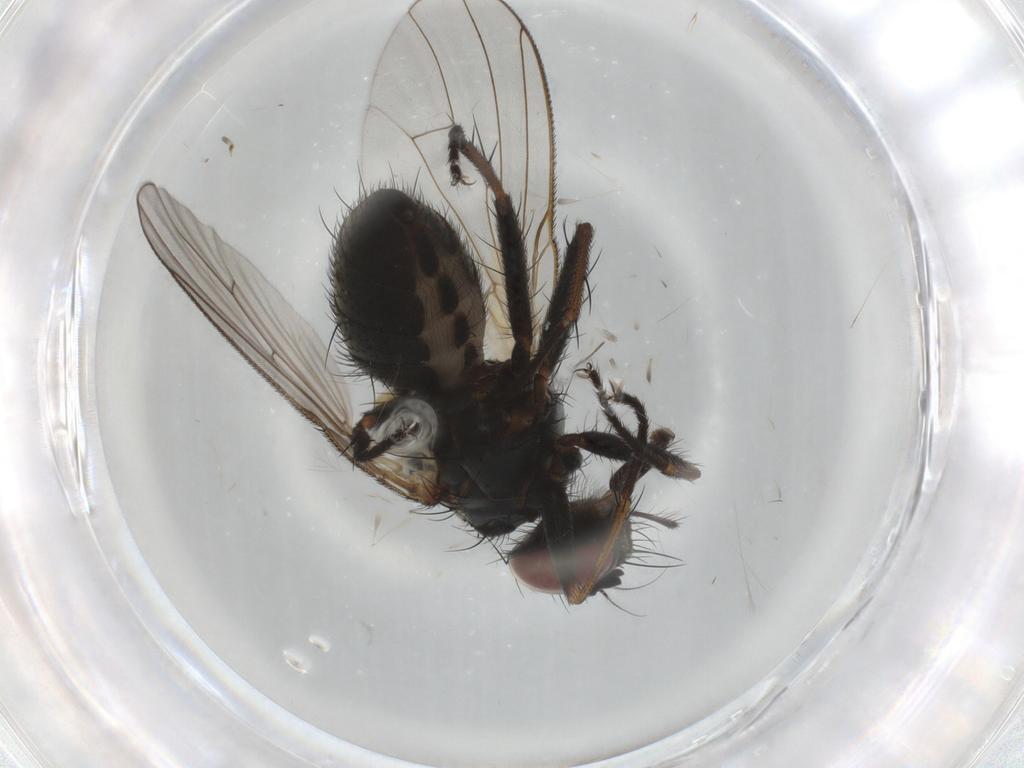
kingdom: Animalia
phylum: Arthropoda
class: Insecta
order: Diptera
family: Muscidae
